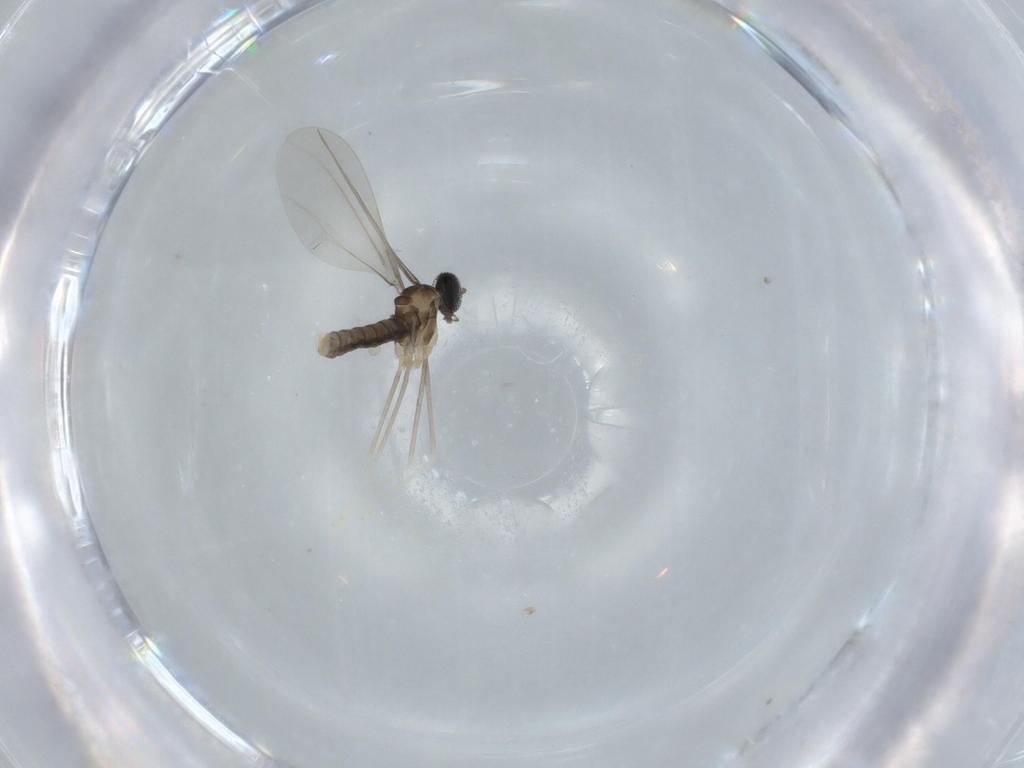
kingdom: Animalia
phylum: Arthropoda
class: Insecta
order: Diptera
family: Cecidomyiidae
